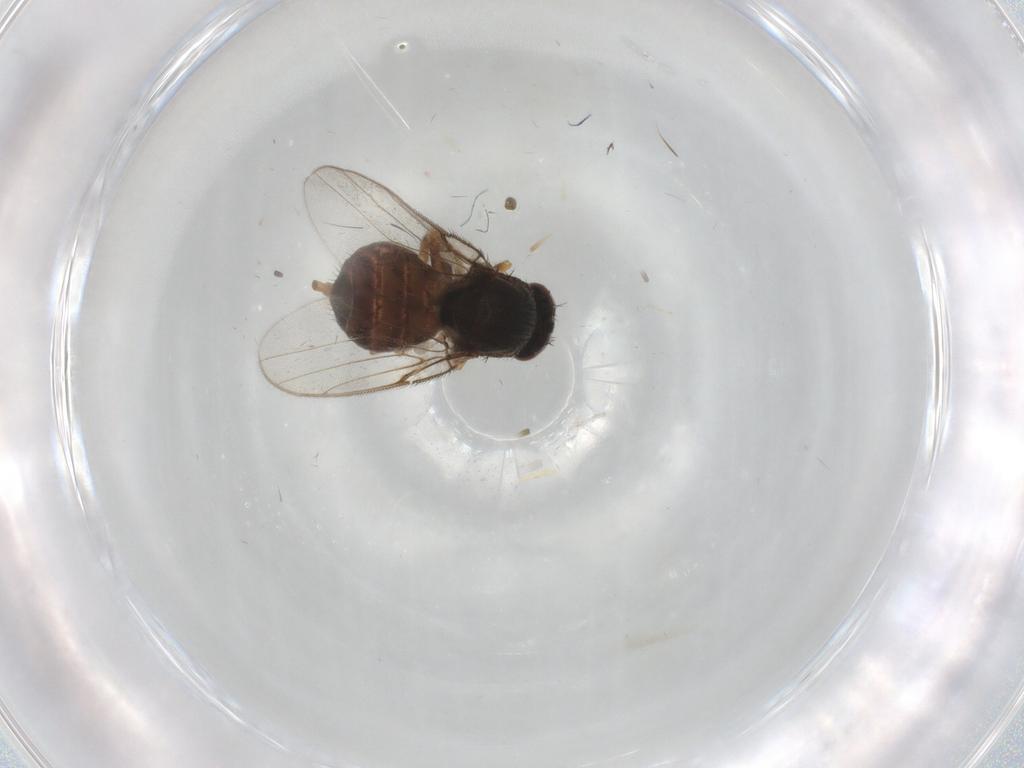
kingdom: Animalia
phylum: Arthropoda
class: Insecta
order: Diptera
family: Chloropidae
